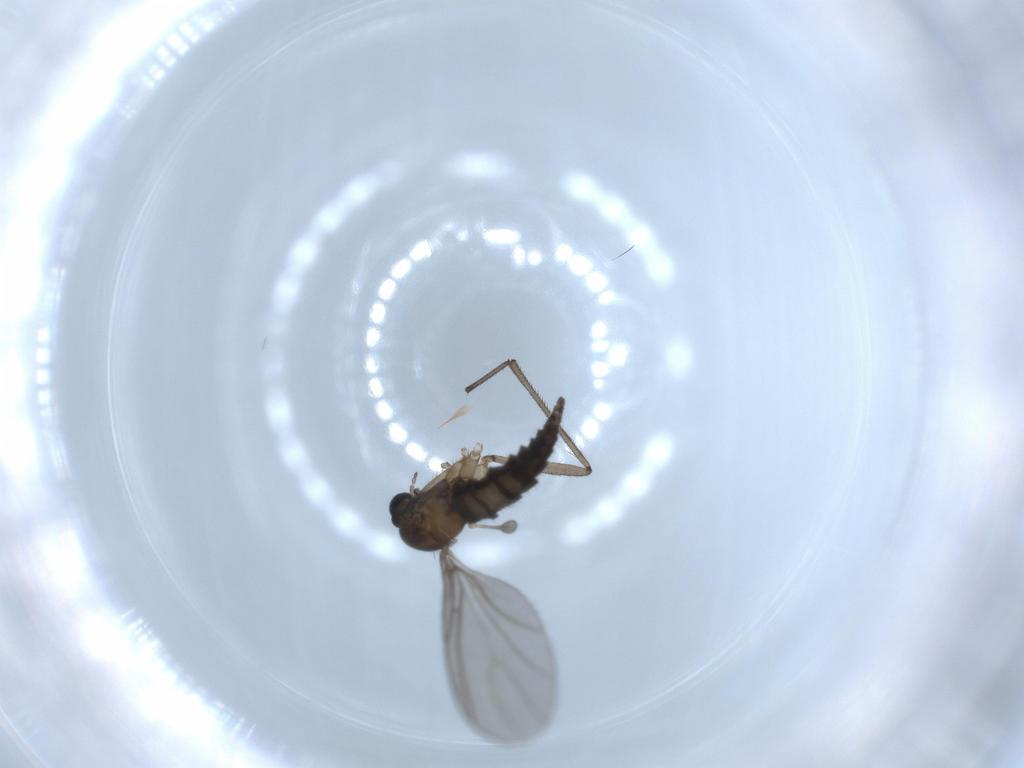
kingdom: Animalia
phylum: Arthropoda
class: Insecta
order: Diptera
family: Sciaridae
